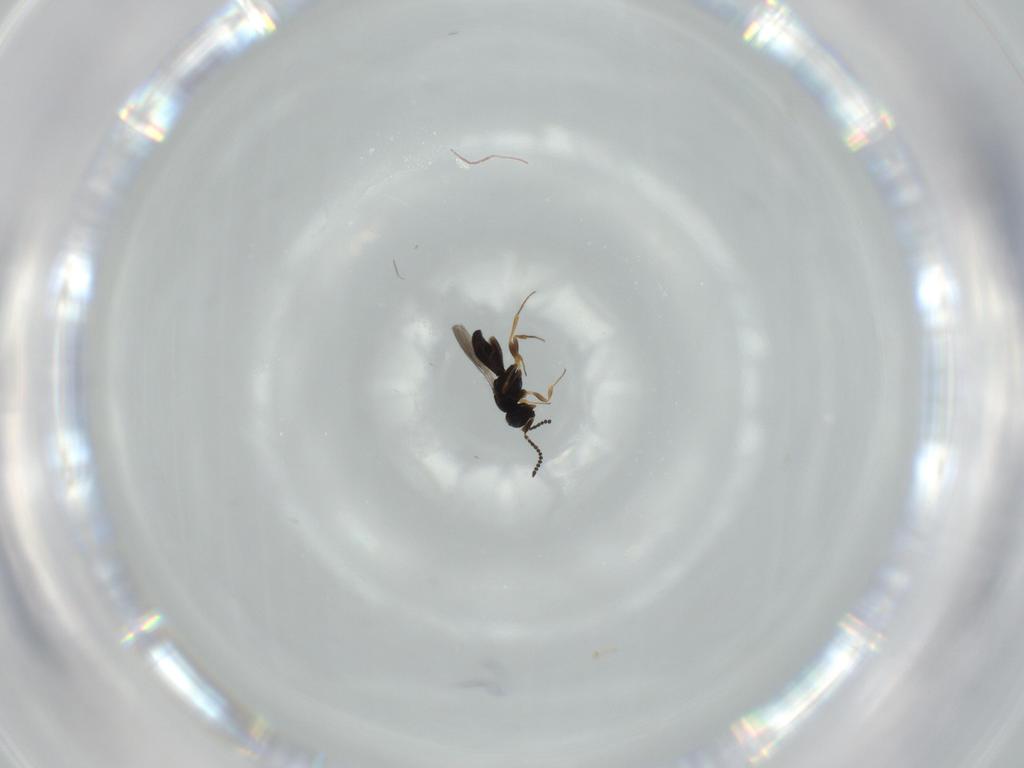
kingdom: Animalia
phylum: Arthropoda
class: Insecta
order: Hymenoptera
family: Scelionidae
